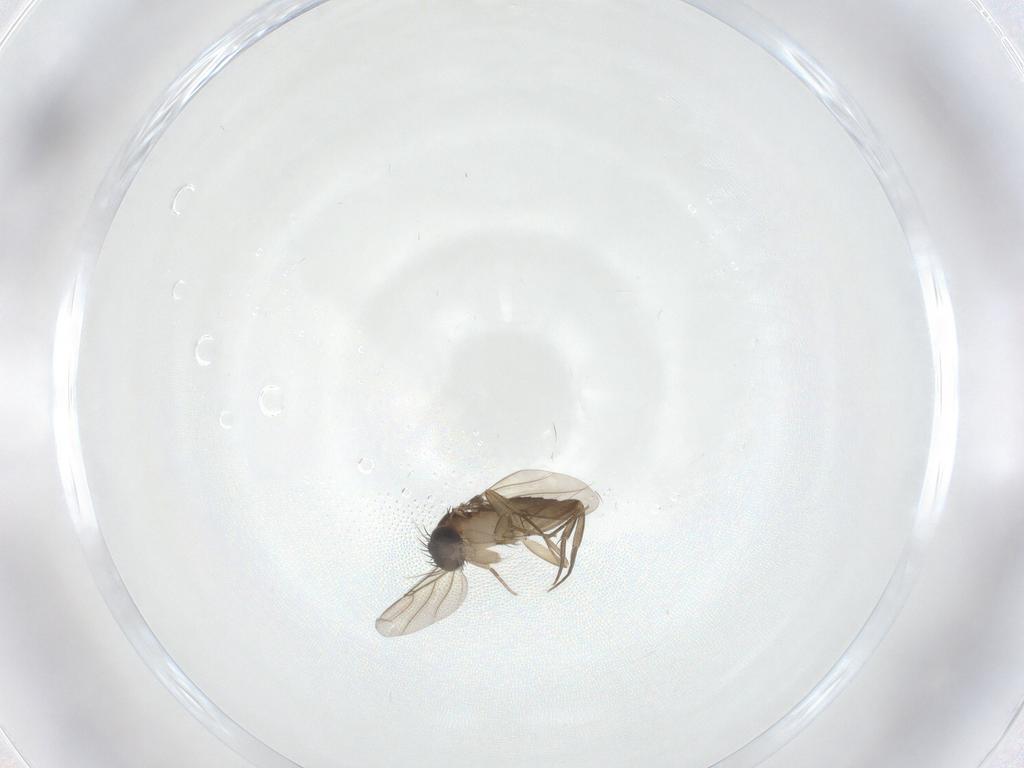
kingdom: Animalia
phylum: Arthropoda
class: Insecta
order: Diptera
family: Phoridae
